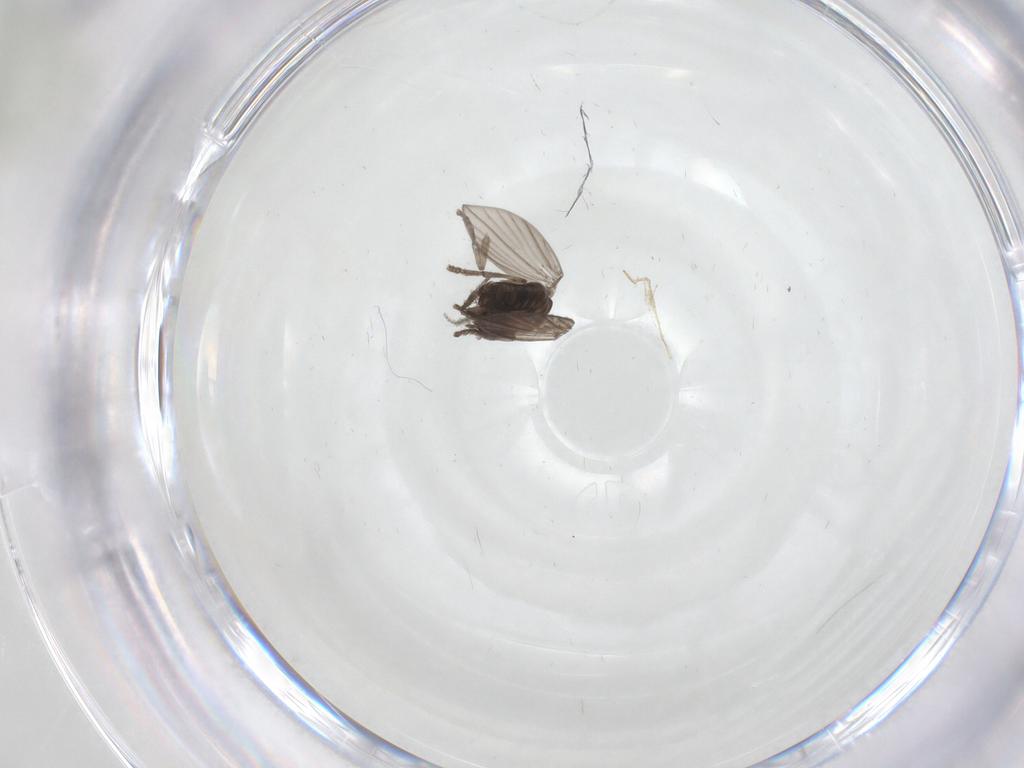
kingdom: Animalia
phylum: Arthropoda
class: Insecta
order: Diptera
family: Psychodidae
